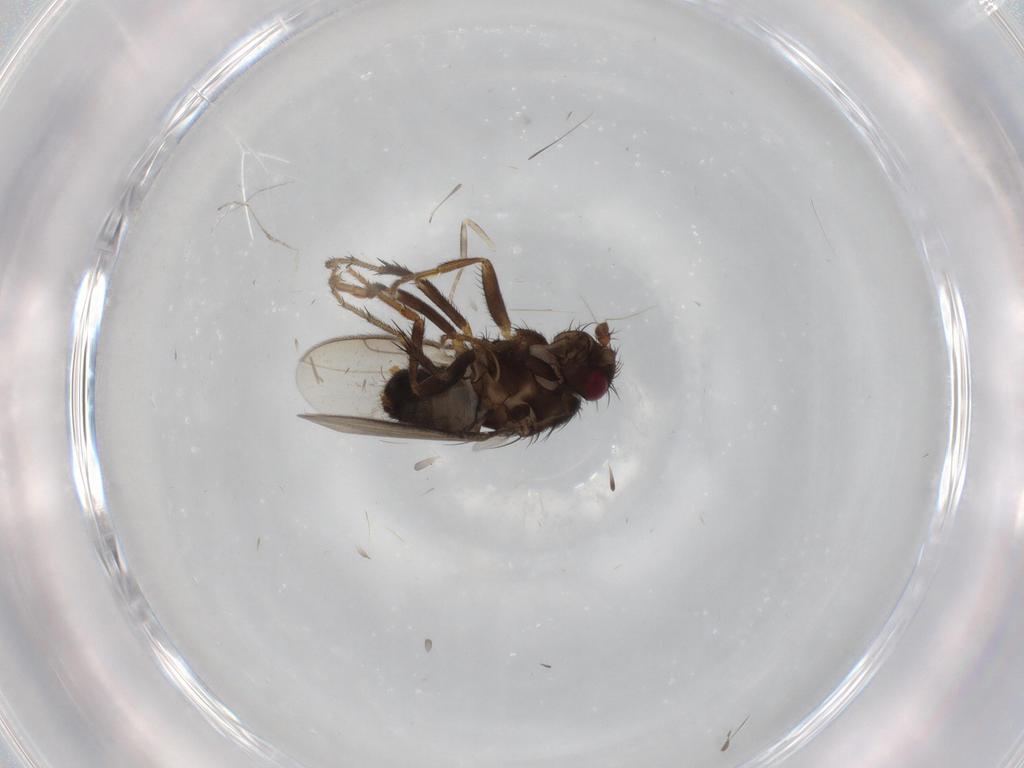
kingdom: Animalia
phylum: Arthropoda
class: Insecta
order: Diptera
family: Sphaeroceridae
